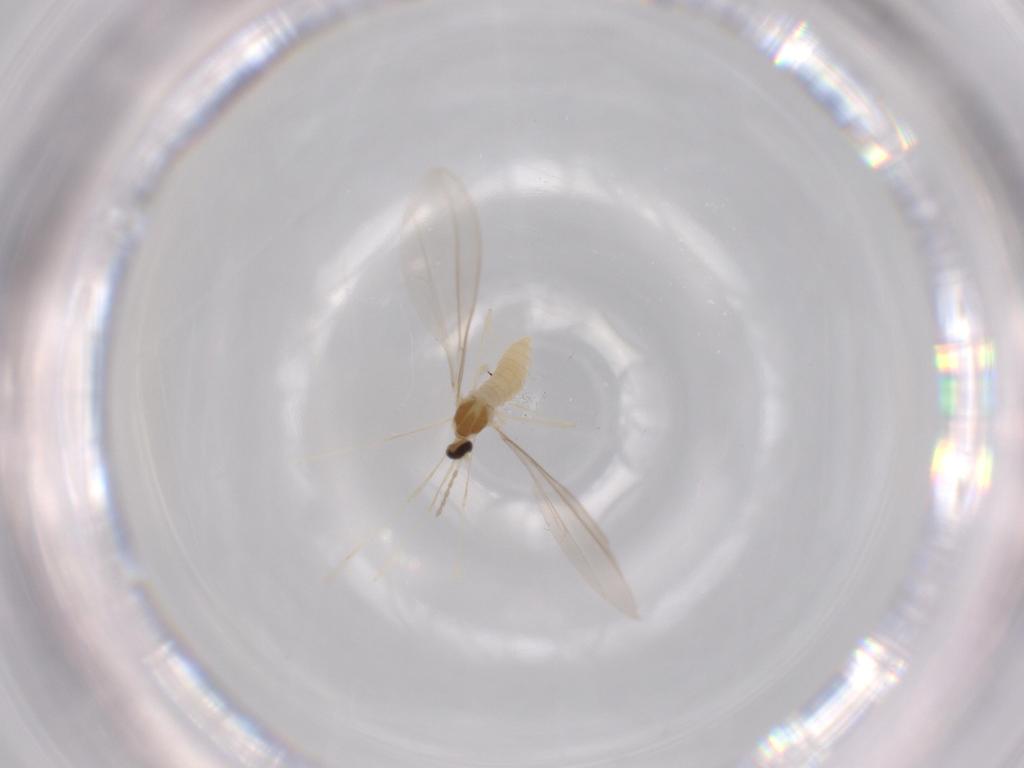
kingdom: Animalia
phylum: Arthropoda
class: Insecta
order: Diptera
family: Cecidomyiidae
